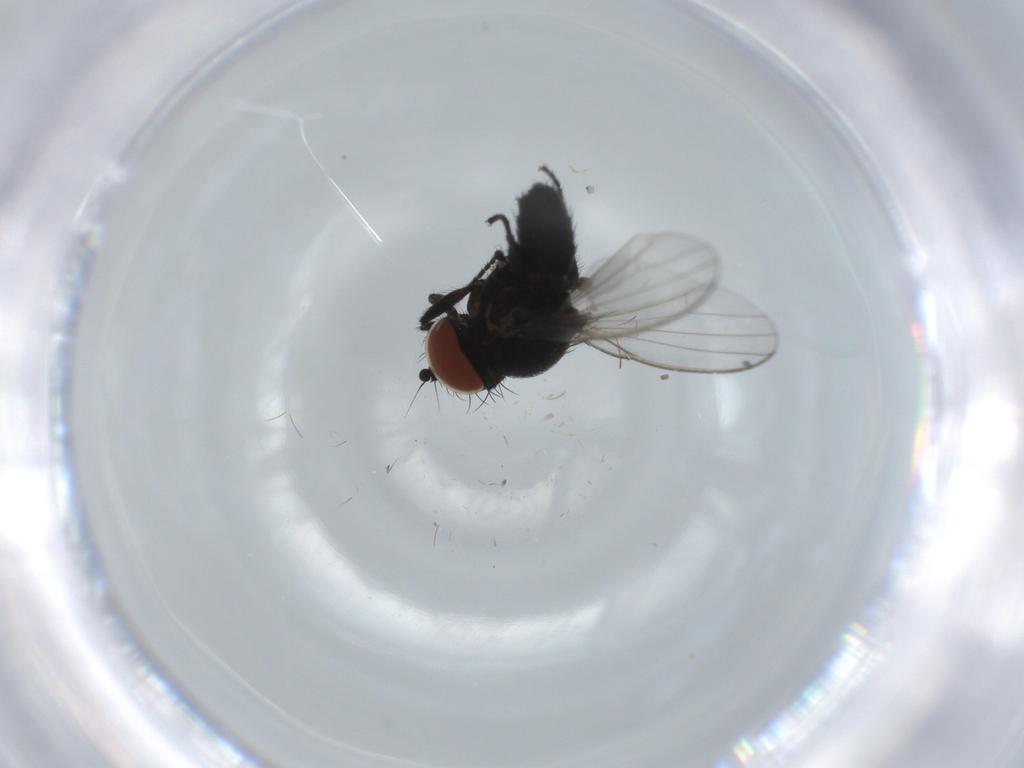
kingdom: Animalia
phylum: Arthropoda
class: Insecta
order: Diptera
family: Milichiidae
